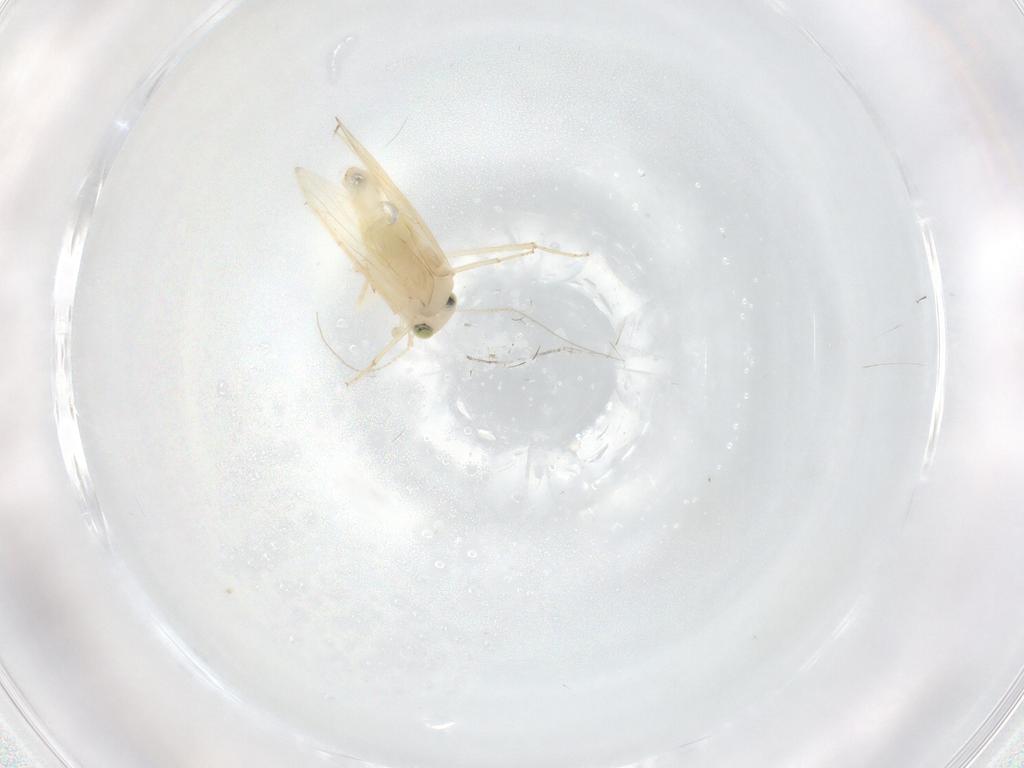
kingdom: Animalia
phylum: Arthropoda
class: Insecta
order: Psocodea
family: Lepidopsocidae
